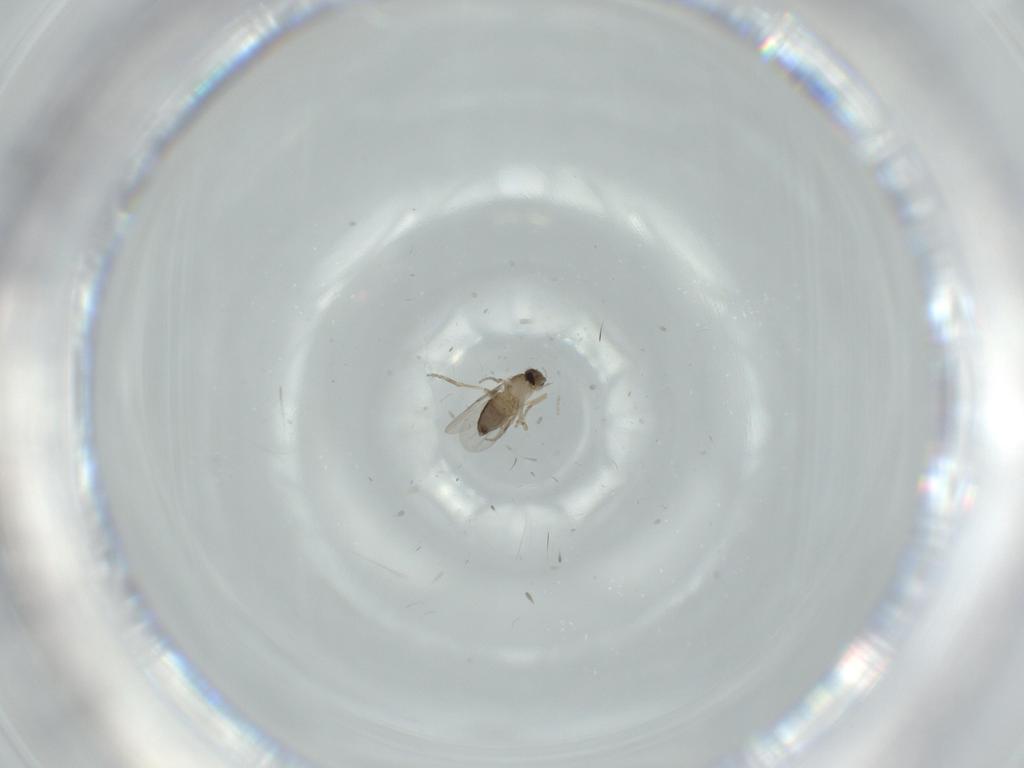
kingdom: Animalia
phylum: Arthropoda
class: Insecta
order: Diptera
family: Phoridae
